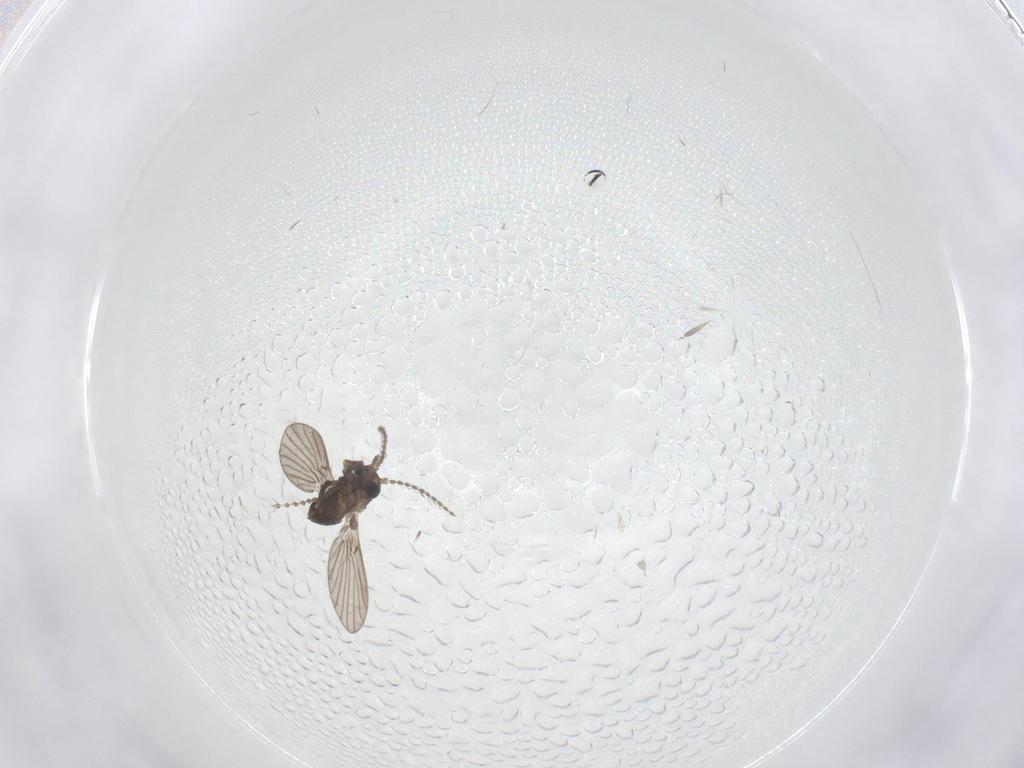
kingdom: Animalia
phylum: Arthropoda
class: Insecta
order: Diptera
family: Cecidomyiidae
